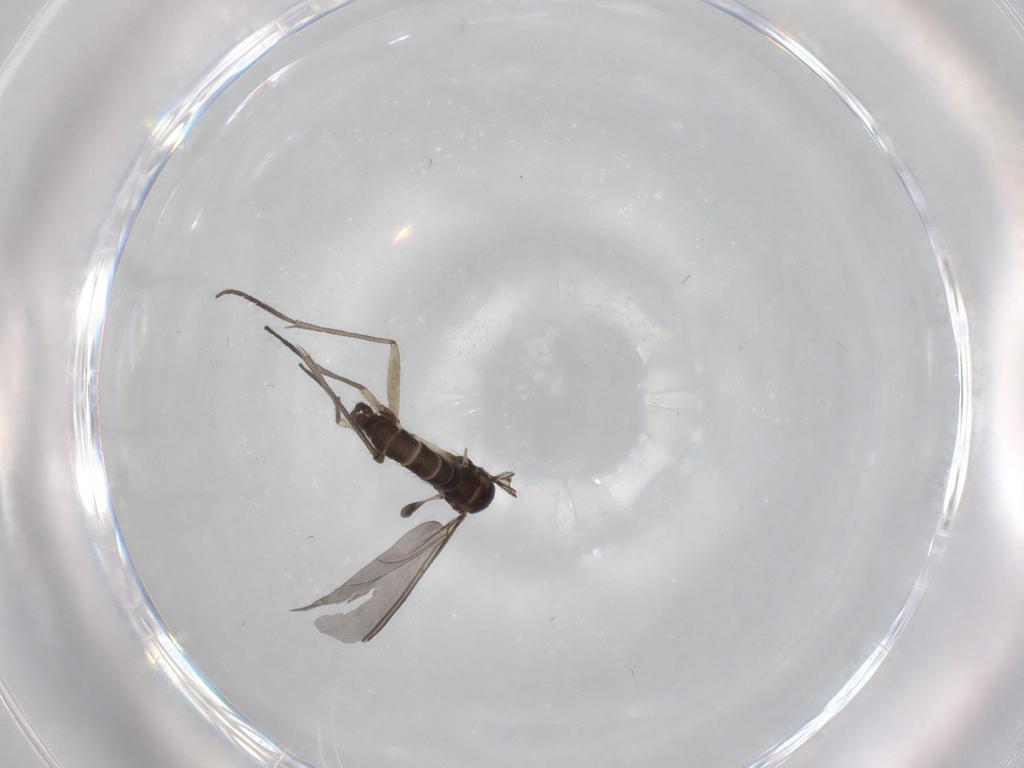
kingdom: Animalia
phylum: Arthropoda
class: Insecta
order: Diptera
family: Sciaridae
